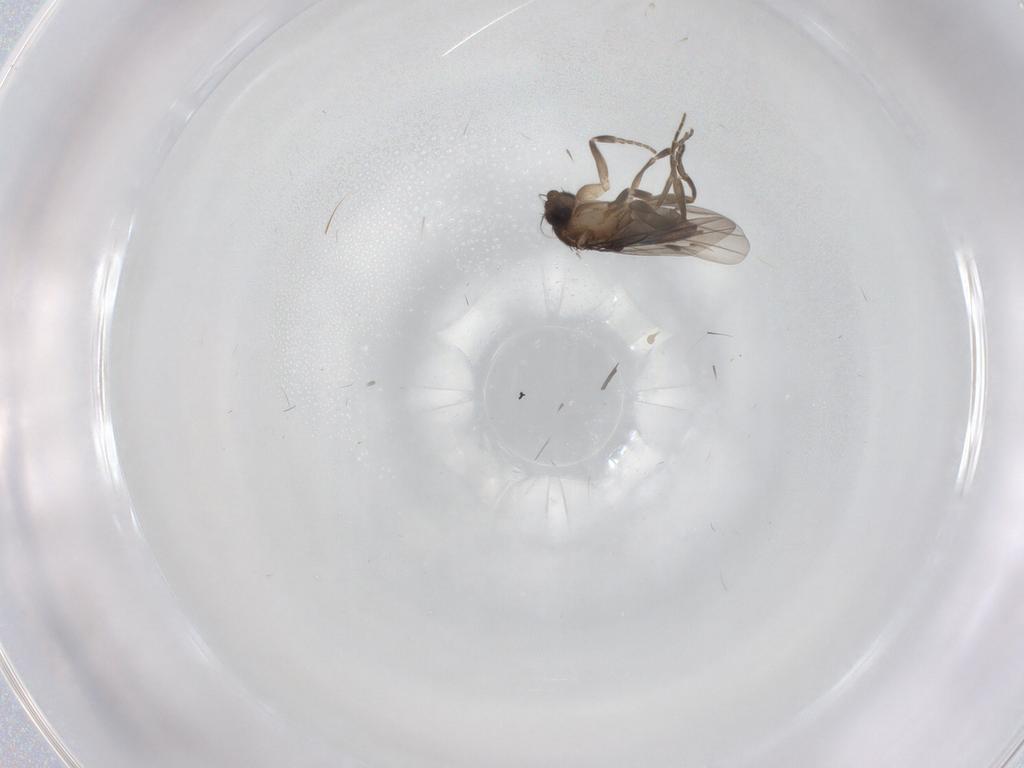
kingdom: Animalia
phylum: Arthropoda
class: Insecta
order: Diptera
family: Phoridae
